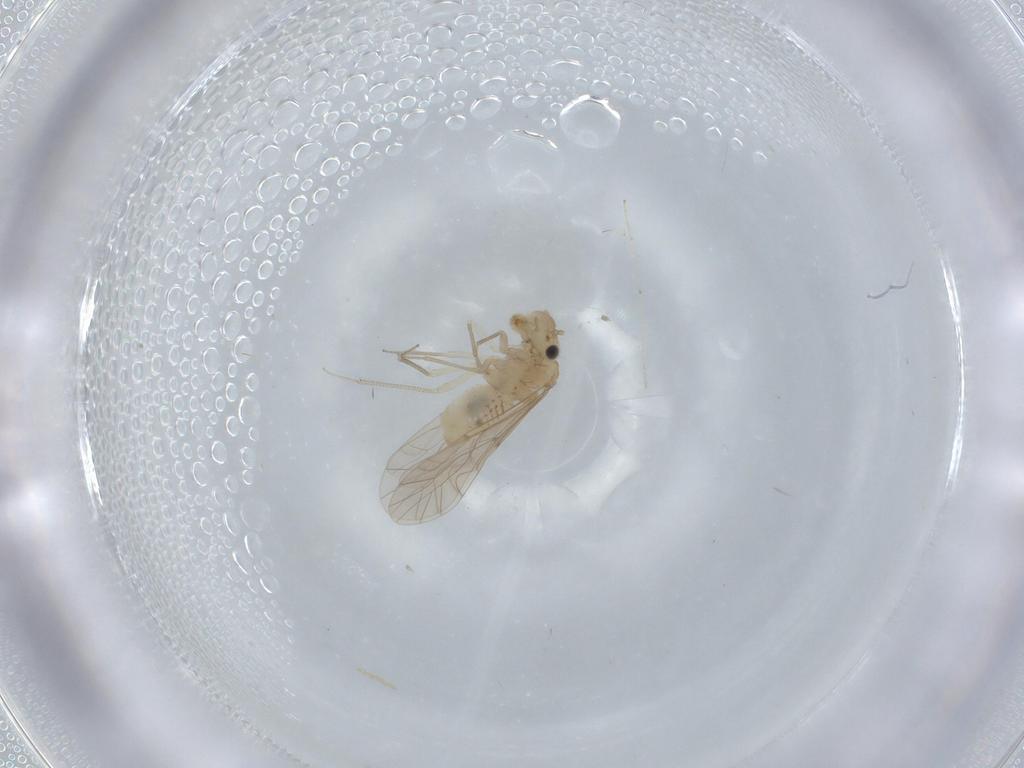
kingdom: Animalia
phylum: Arthropoda
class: Insecta
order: Psocodea
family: Lachesillidae
